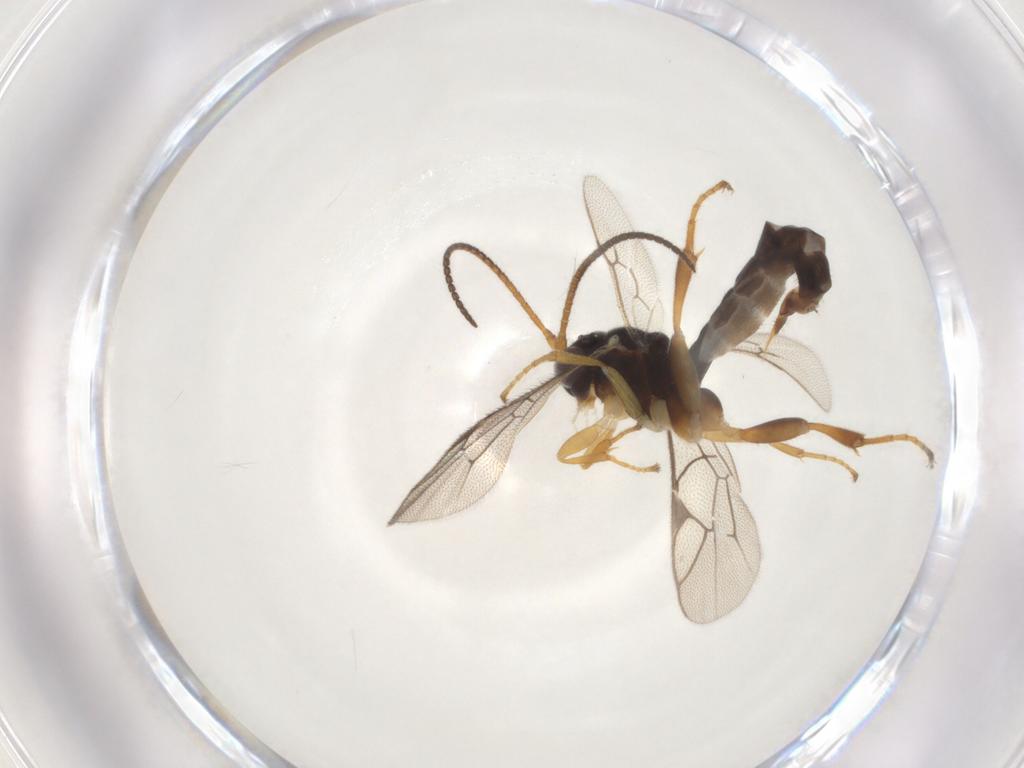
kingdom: Animalia
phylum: Arthropoda
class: Insecta
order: Hymenoptera
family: Ichneumonidae
